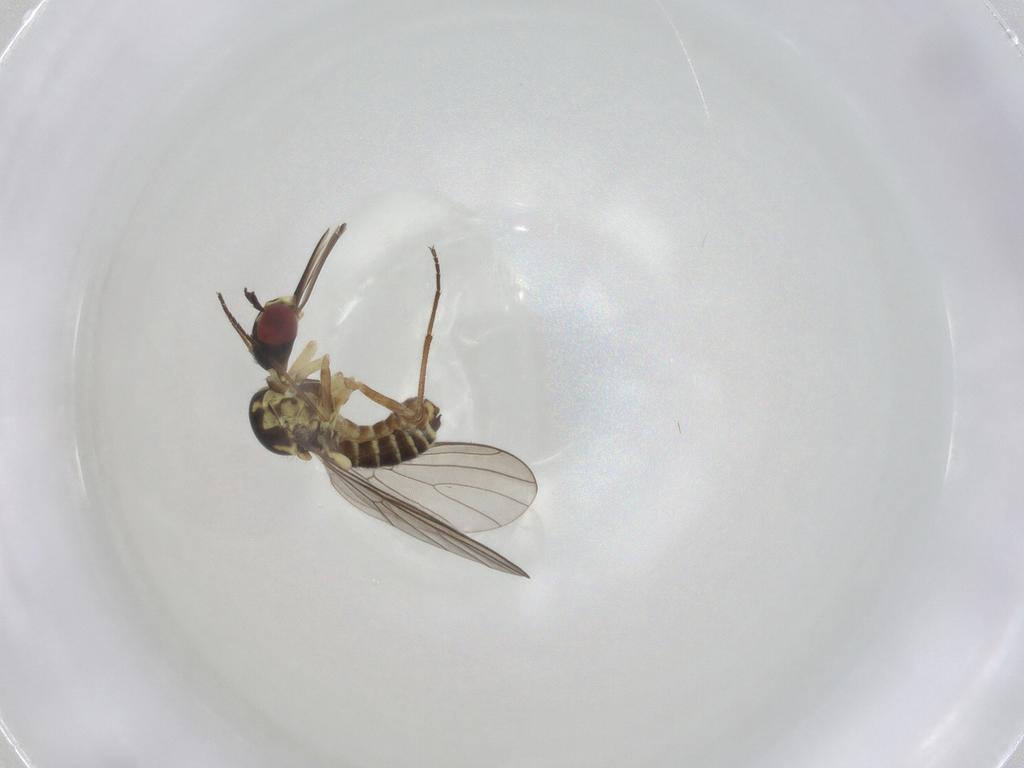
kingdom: Animalia
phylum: Arthropoda
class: Insecta
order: Diptera
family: Mythicomyiidae
